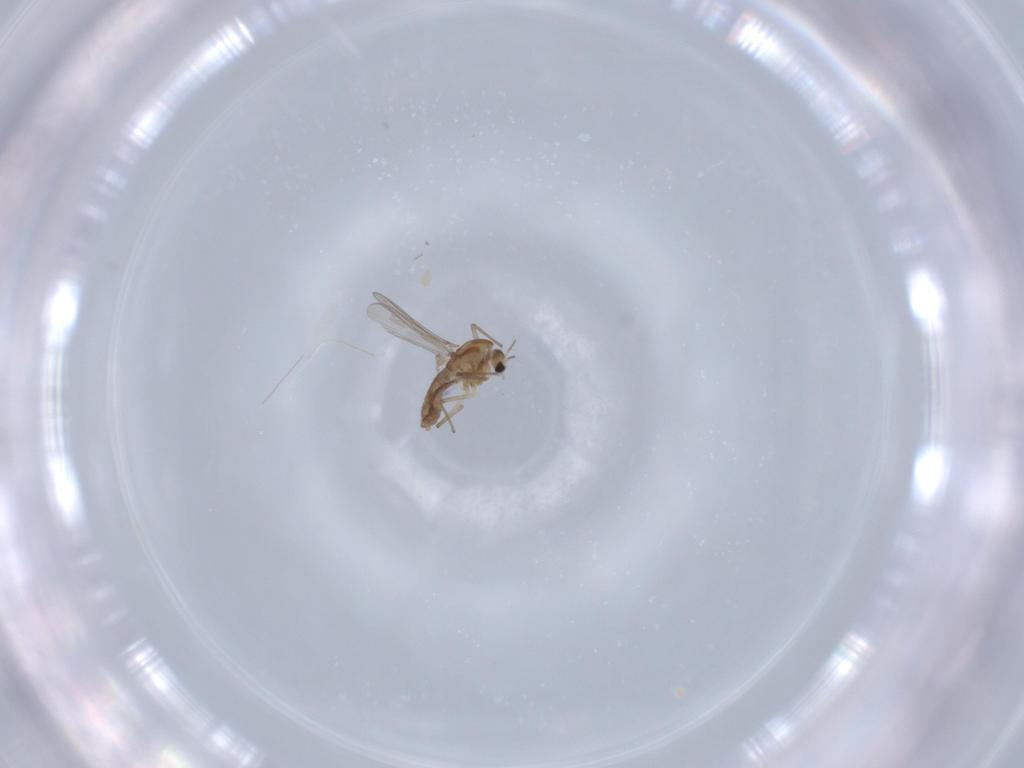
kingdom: Animalia
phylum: Arthropoda
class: Insecta
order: Diptera
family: Chironomidae
